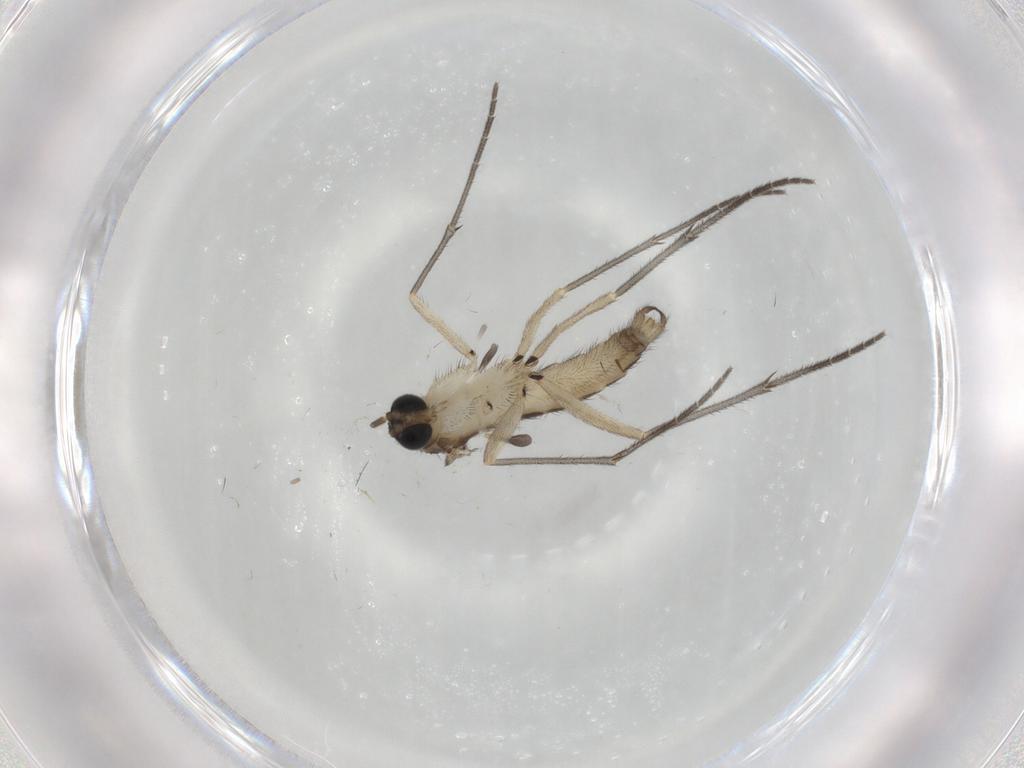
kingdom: Animalia
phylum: Arthropoda
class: Insecta
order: Diptera
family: Sciaridae
